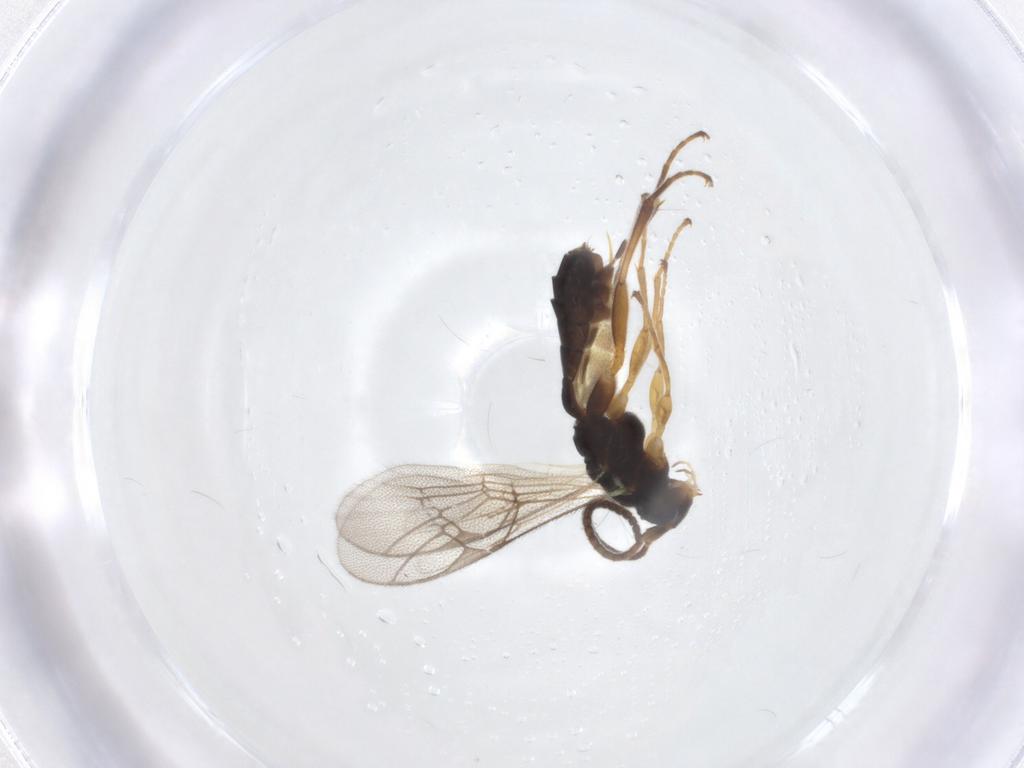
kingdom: Animalia
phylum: Arthropoda
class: Insecta
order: Hymenoptera
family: Ichneumonidae
